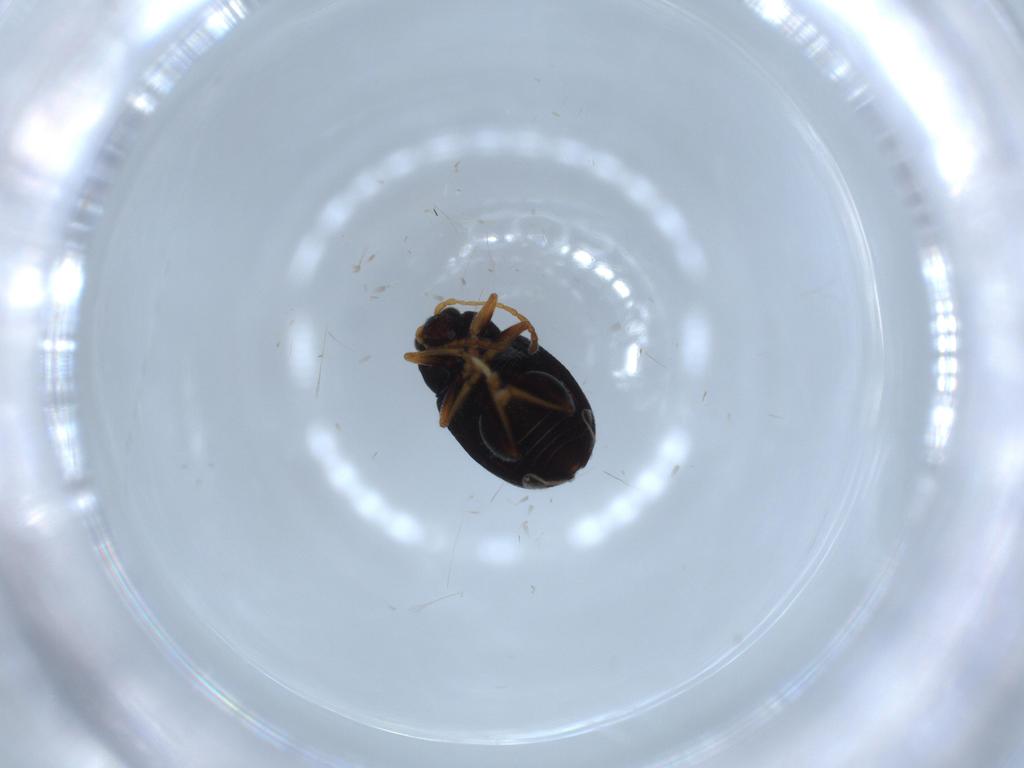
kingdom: Animalia
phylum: Arthropoda
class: Insecta
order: Coleoptera
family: Chrysomelidae
